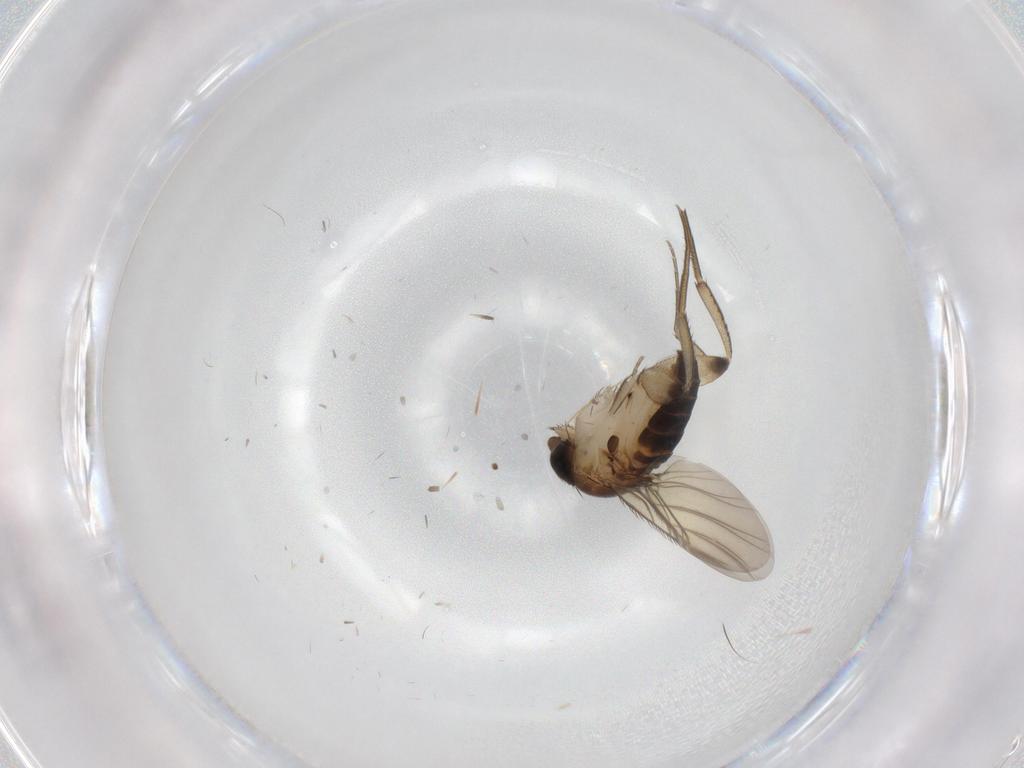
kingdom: Animalia
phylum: Arthropoda
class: Insecta
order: Diptera
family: Phoridae
